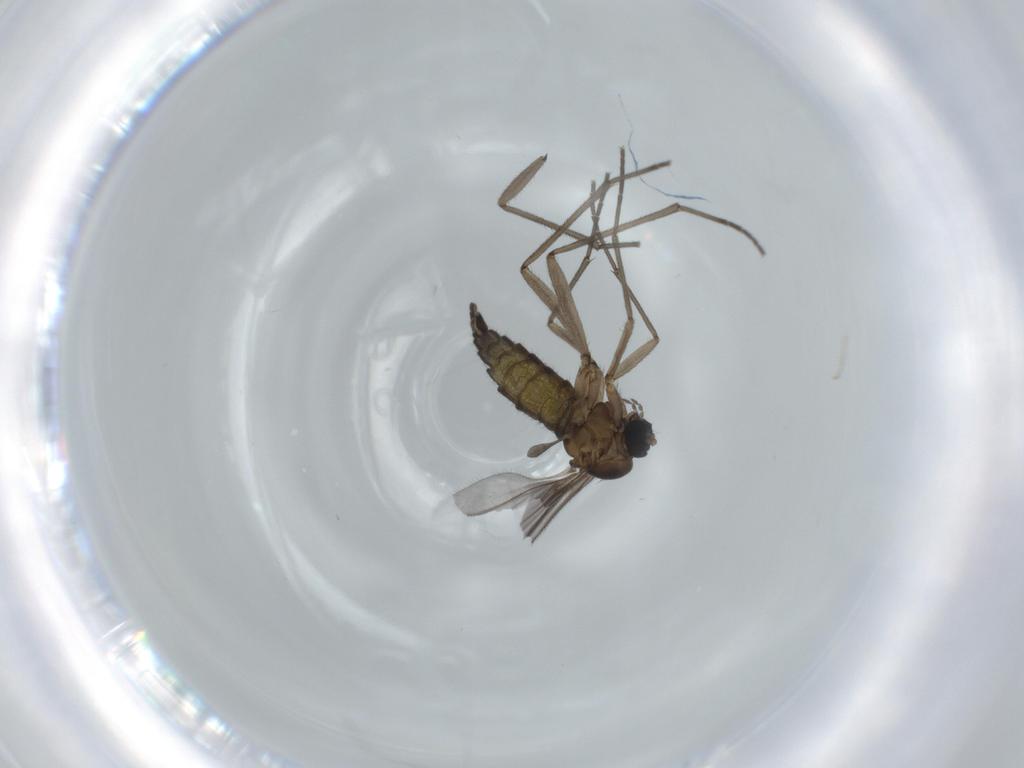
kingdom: Animalia
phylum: Arthropoda
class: Insecta
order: Diptera
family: Sciaridae
